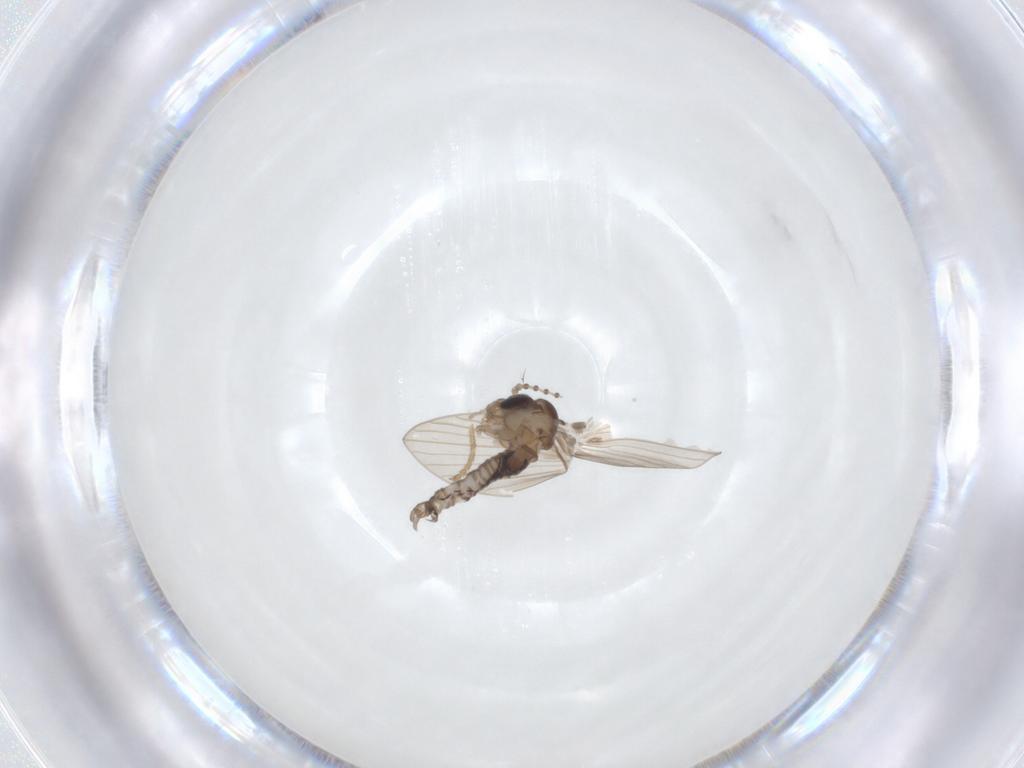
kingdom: Animalia
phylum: Arthropoda
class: Insecta
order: Diptera
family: Psychodidae
